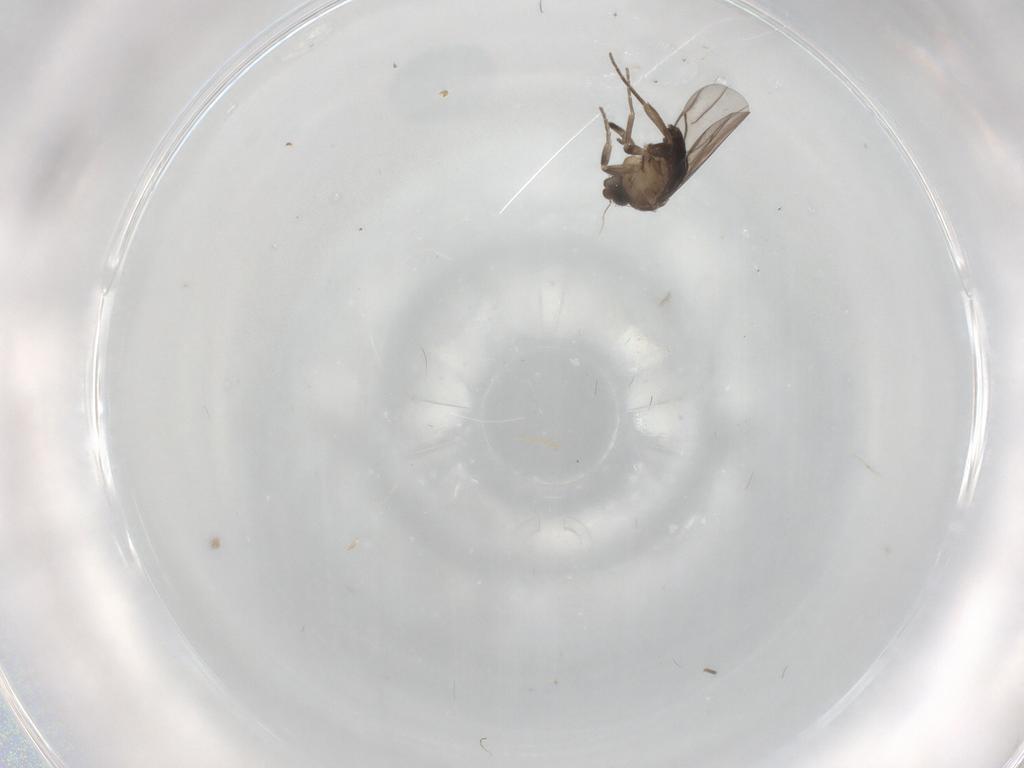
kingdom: Animalia
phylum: Arthropoda
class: Insecta
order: Diptera
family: Cecidomyiidae
